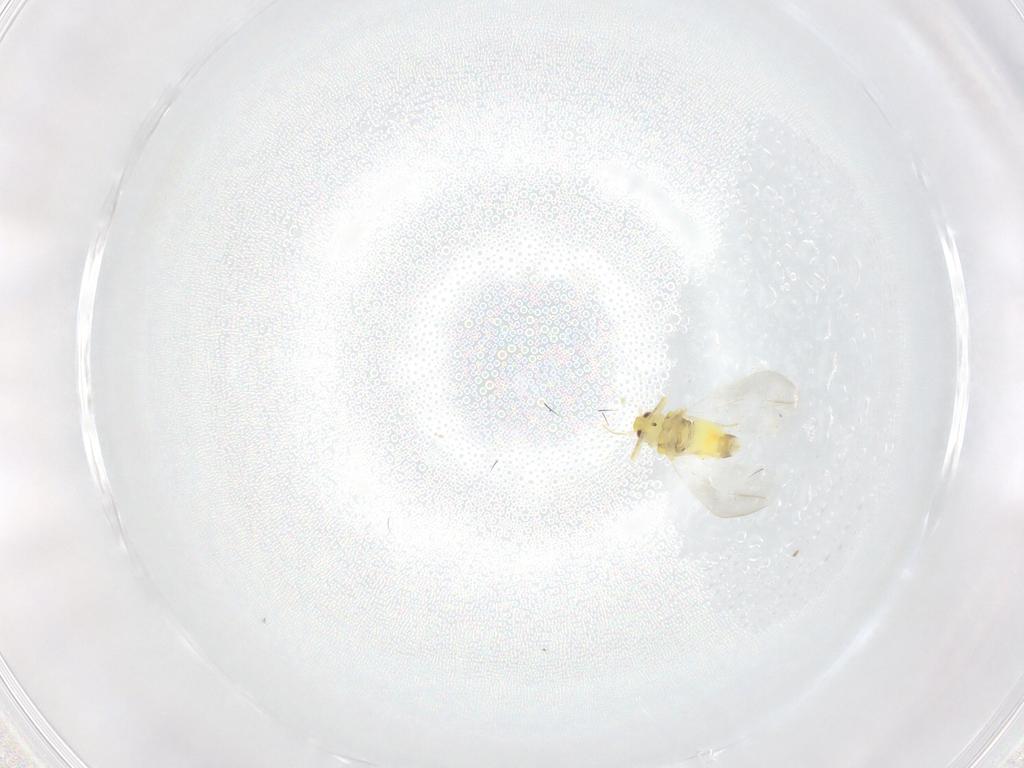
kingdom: Animalia
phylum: Arthropoda
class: Insecta
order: Hemiptera
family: Aleyrodidae
